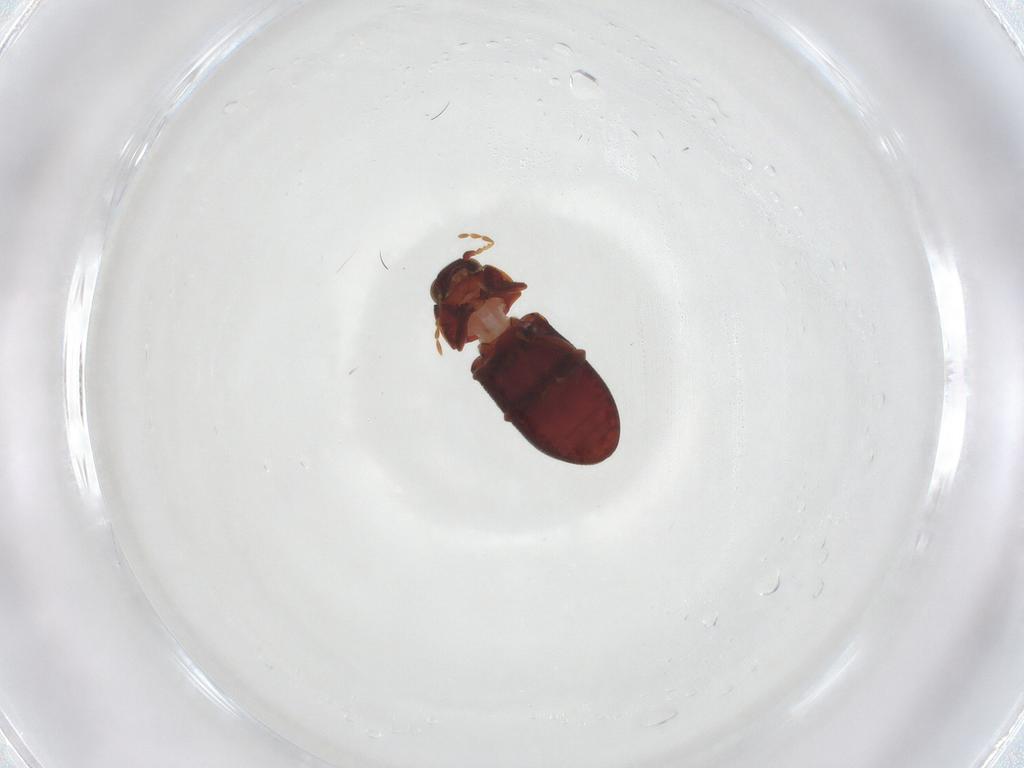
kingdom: Animalia
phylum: Arthropoda
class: Insecta
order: Coleoptera
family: Ptinidae
